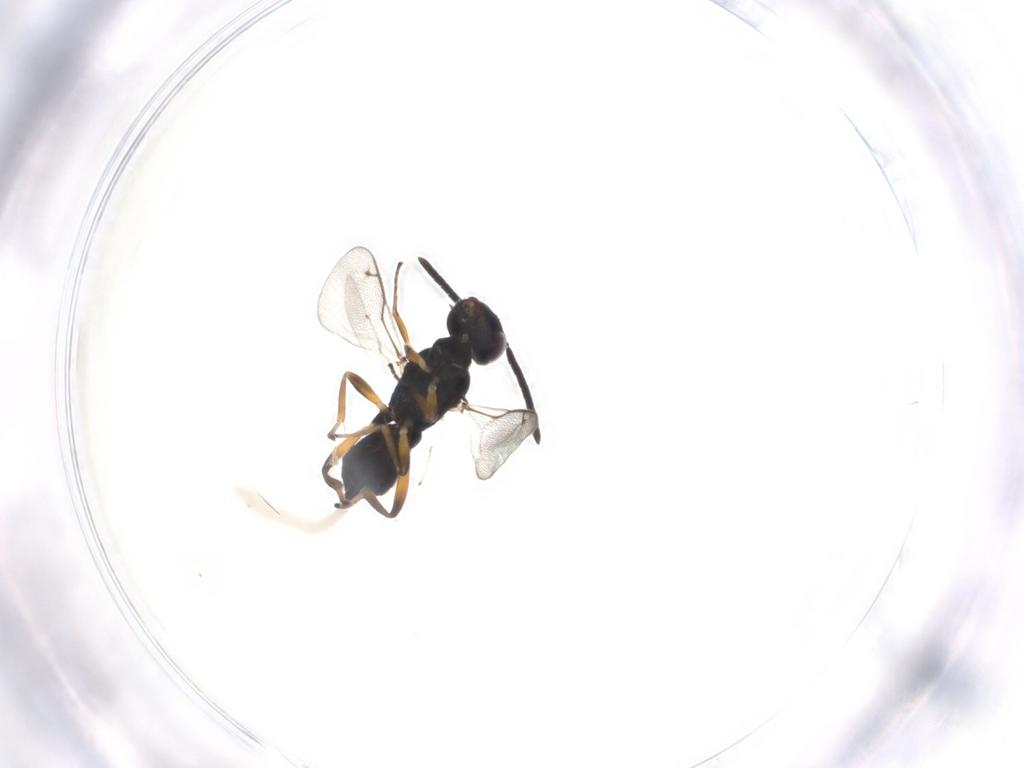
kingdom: Animalia
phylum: Arthropoda
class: Insecta
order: Hymenoptera
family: Eupelmidae
